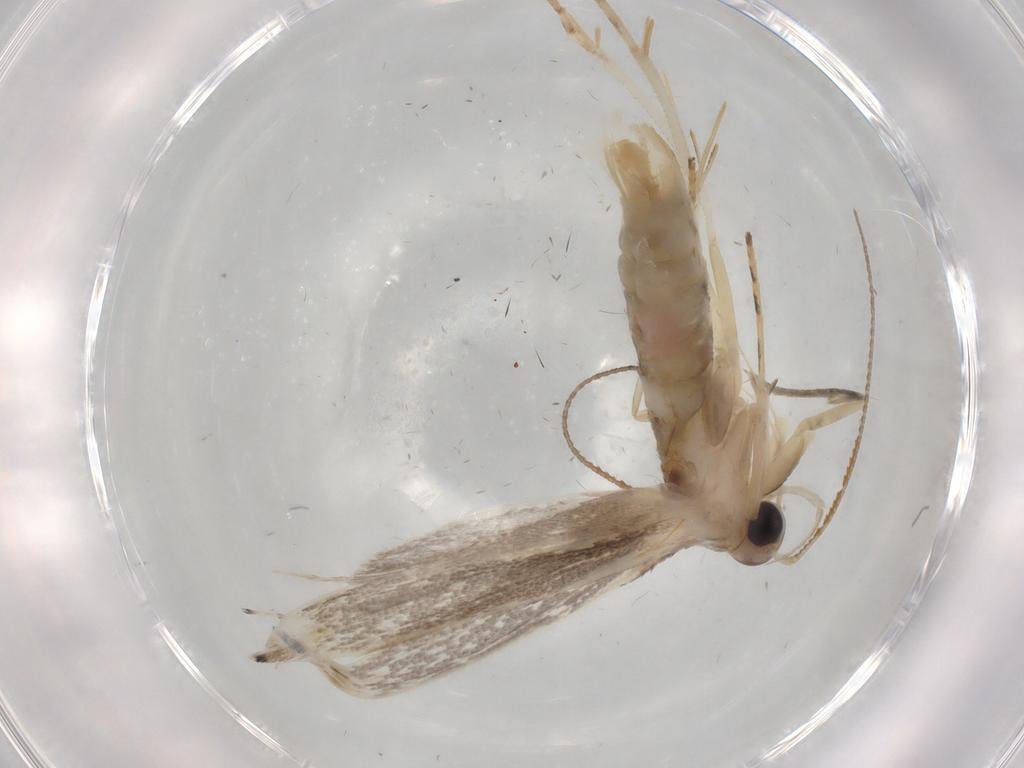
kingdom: Animalia
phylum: Arthropoda
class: Insecta
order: Lepidoptera
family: Gelechiidae
